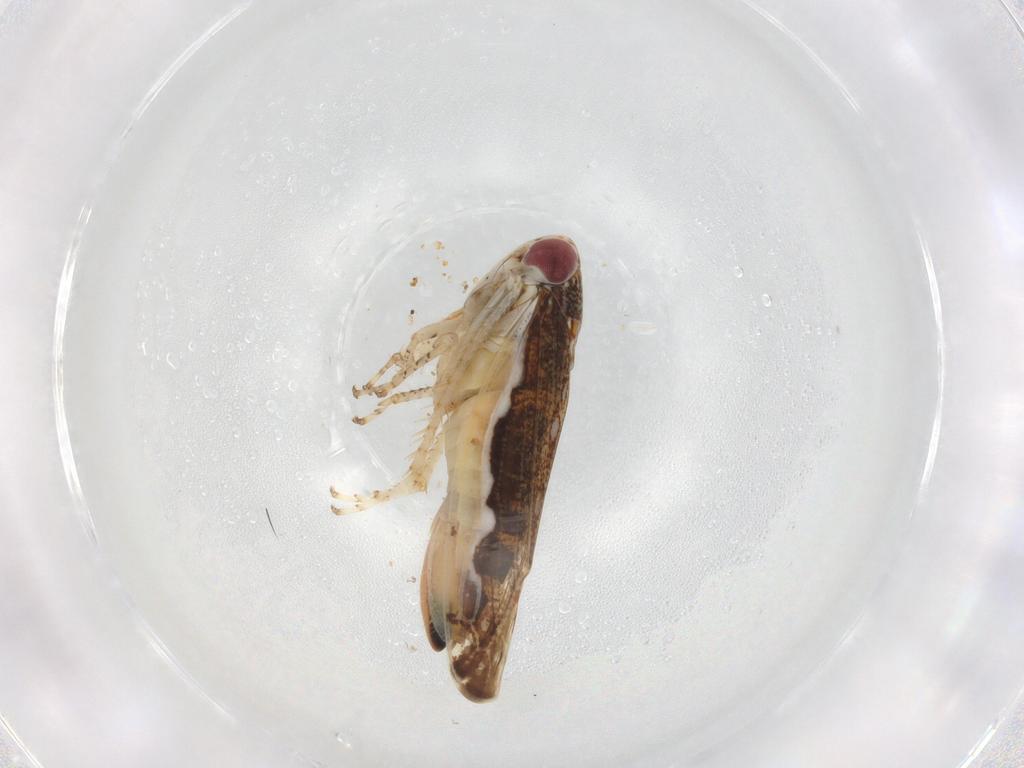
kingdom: Animalia
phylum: Arthropoda
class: Insecta
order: Hemiptera
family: Cicadellidae
